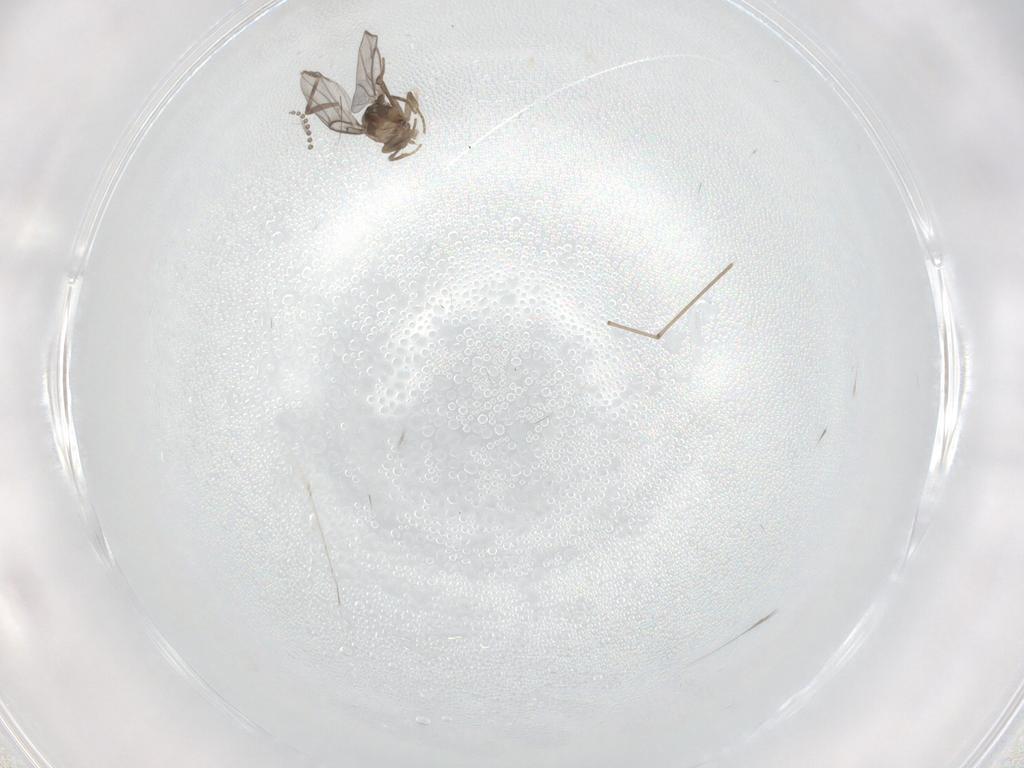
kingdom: Animalia
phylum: Arthropoda
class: Insecta
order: Diptera
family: Ceratopogonidae
